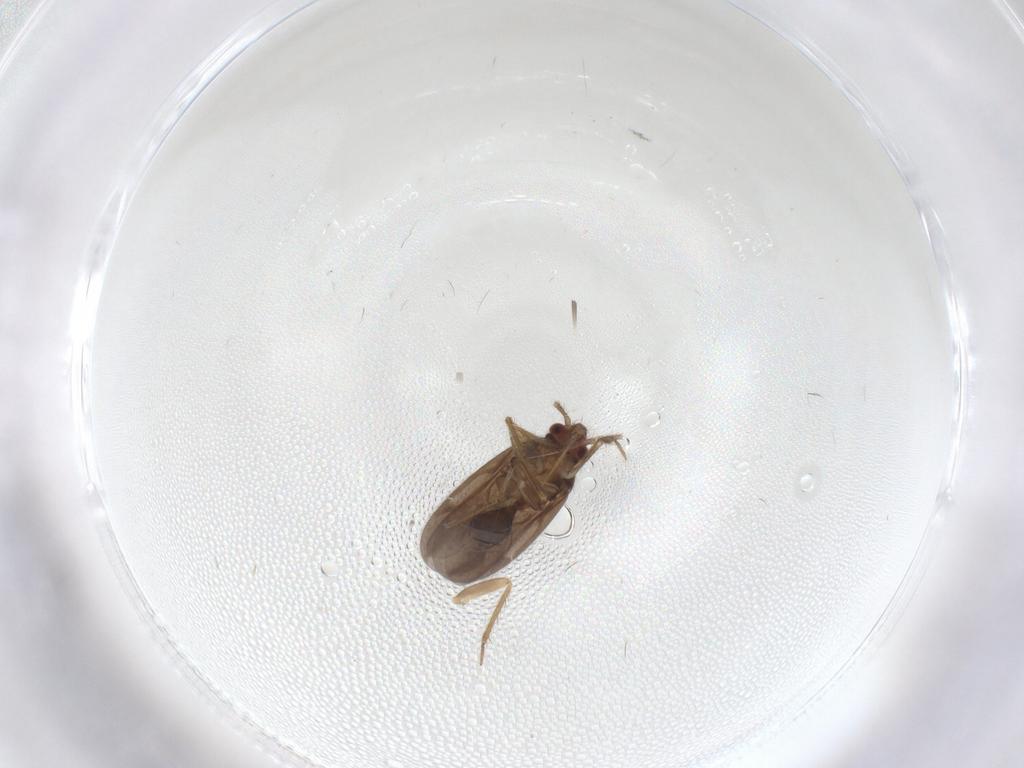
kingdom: Animalia
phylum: Arthropoda
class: Insecta
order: Hemiptera
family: Ceratocombidae
